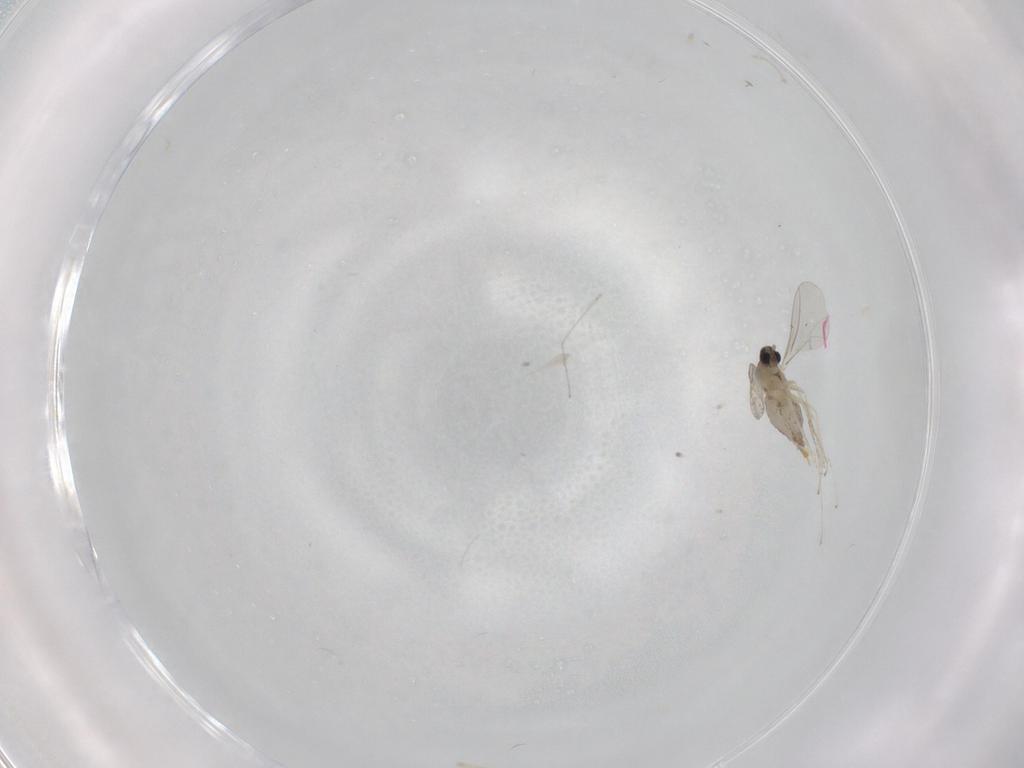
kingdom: Animalia
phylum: Arthropoda
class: Insecta
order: Diptera
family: Cecidomyiidae
